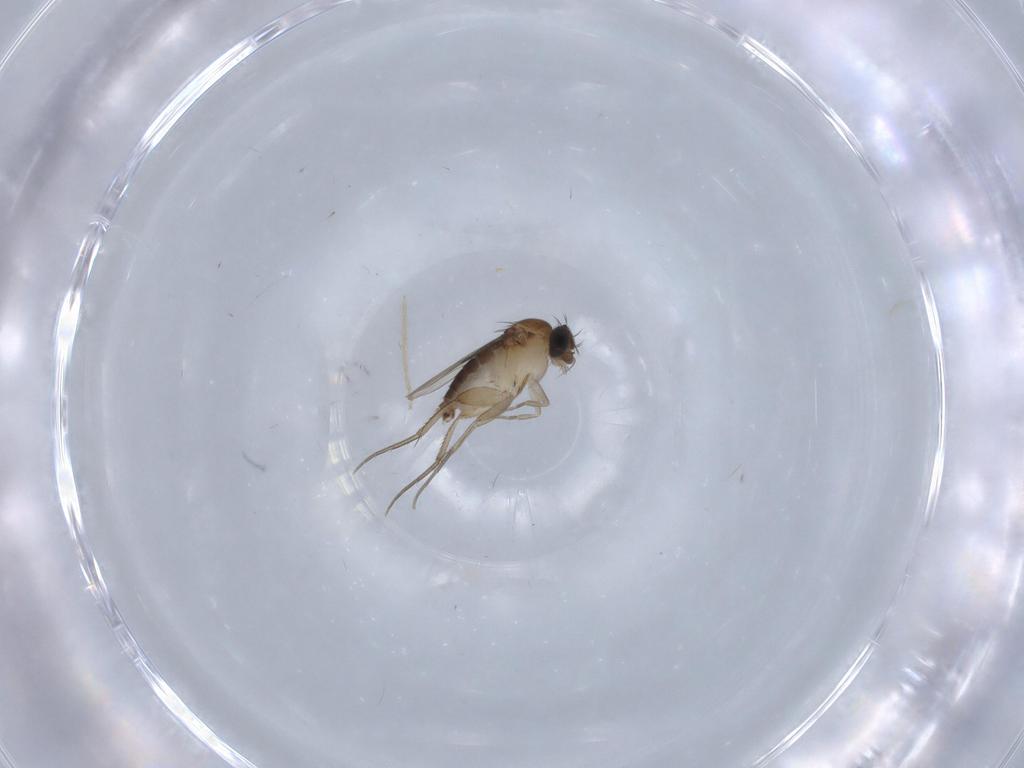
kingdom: Animalia
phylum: Arthropoda
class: Insecta
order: Diptera
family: Phoridae
